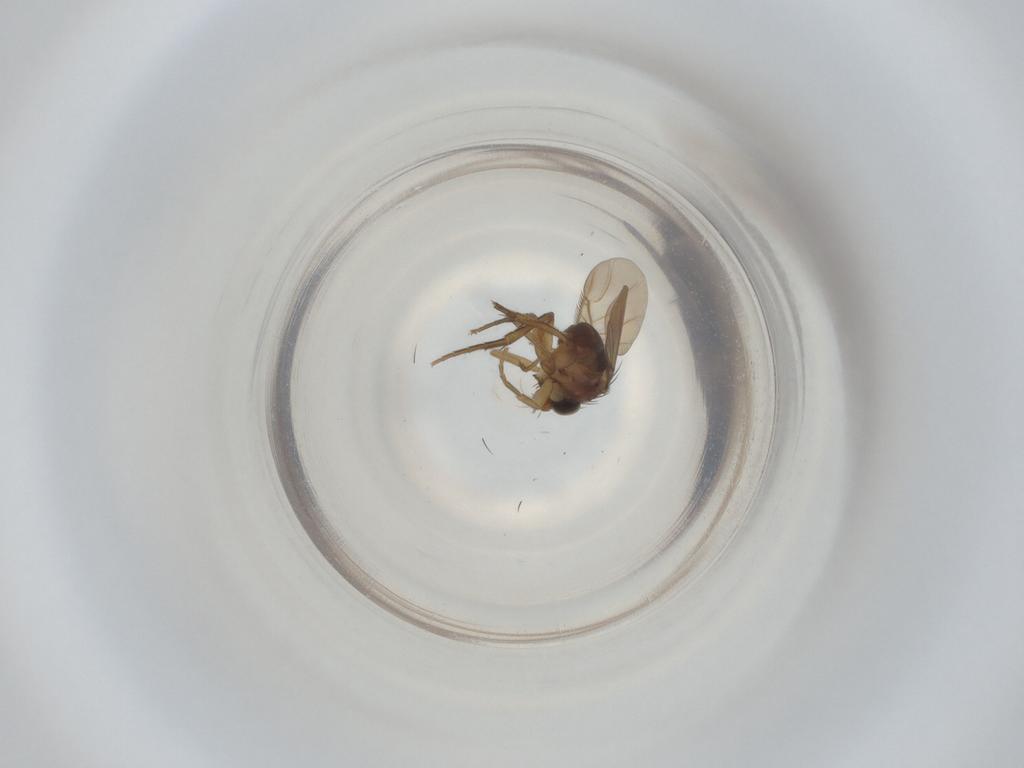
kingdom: Animalia
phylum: Arthropoda
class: Insecta
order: Diptera
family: Phoridae
